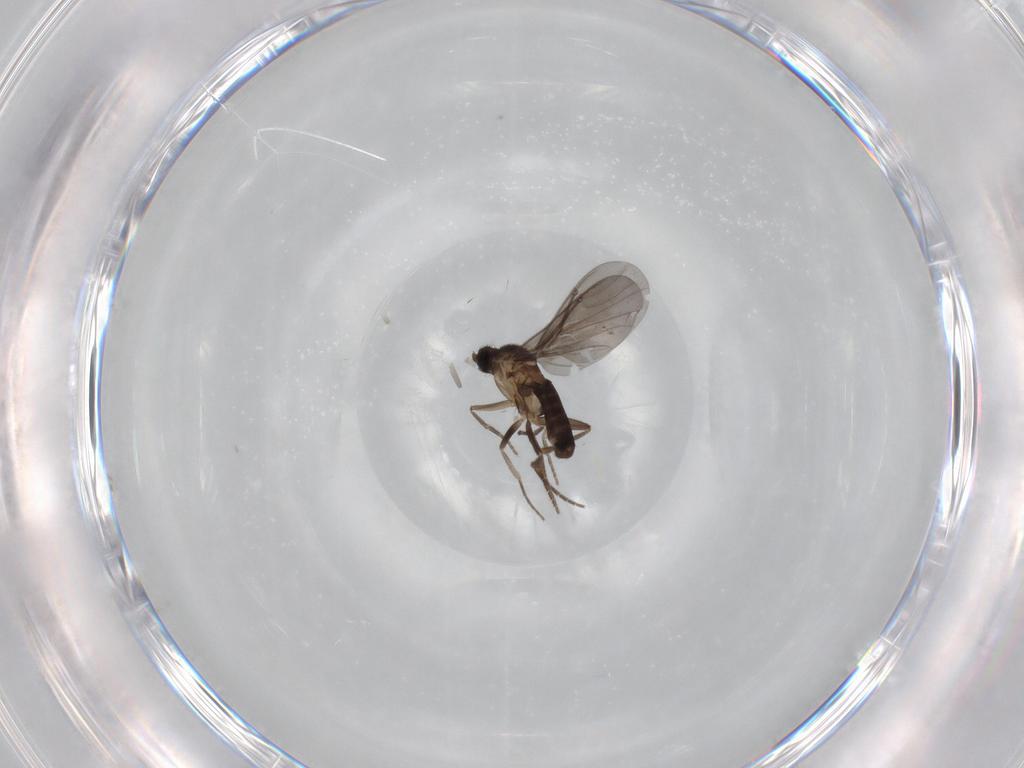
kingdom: Animalia
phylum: Arthropoda
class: Insecta
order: Diptera
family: Phoridae
